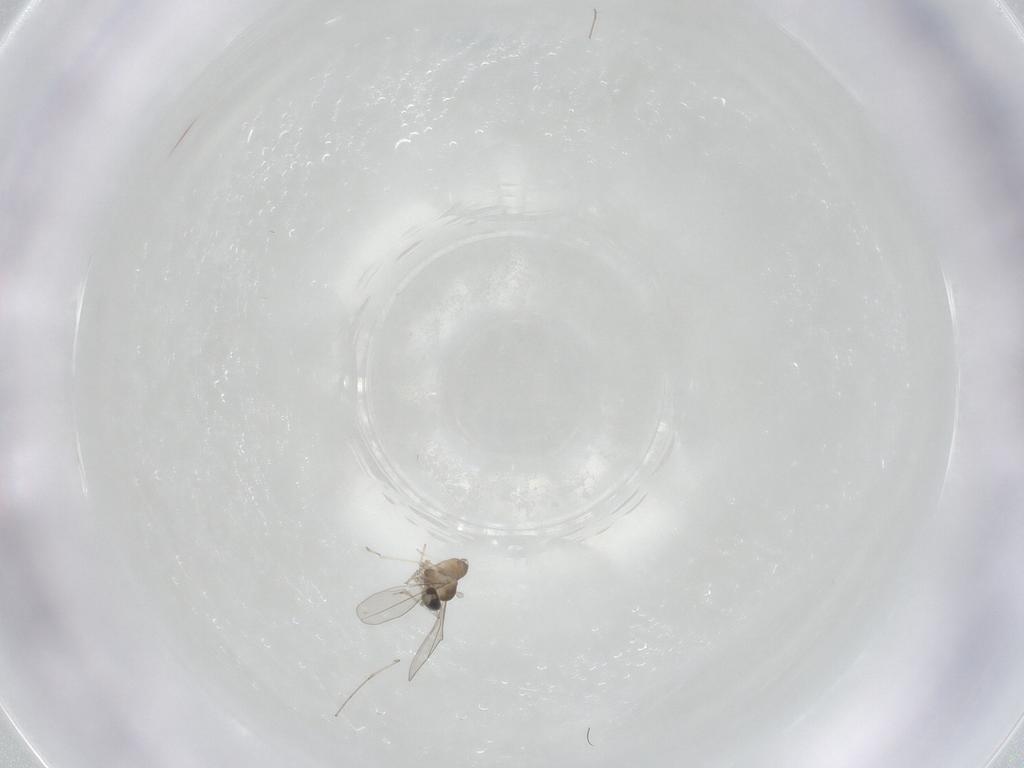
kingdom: Animalia
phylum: Arthropoda
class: Insecta
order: Diptera
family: Cecidomyiidae
